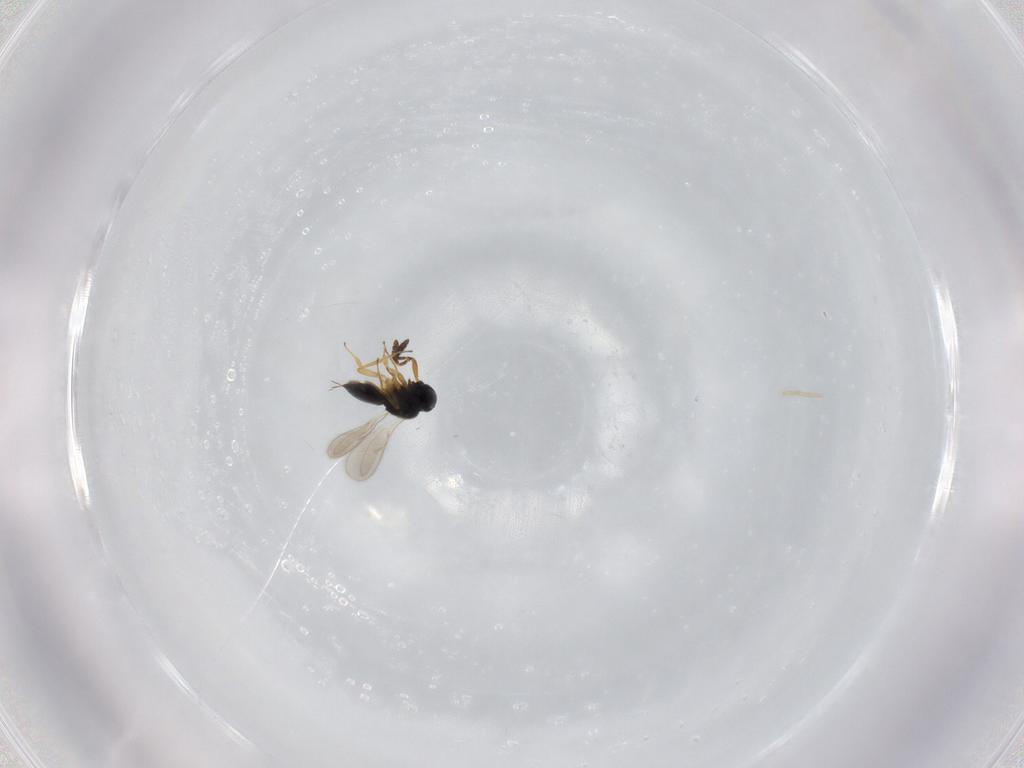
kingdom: Animalia
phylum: Arthropoda
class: Insecta
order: Hymenoptera
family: Scelionidae
